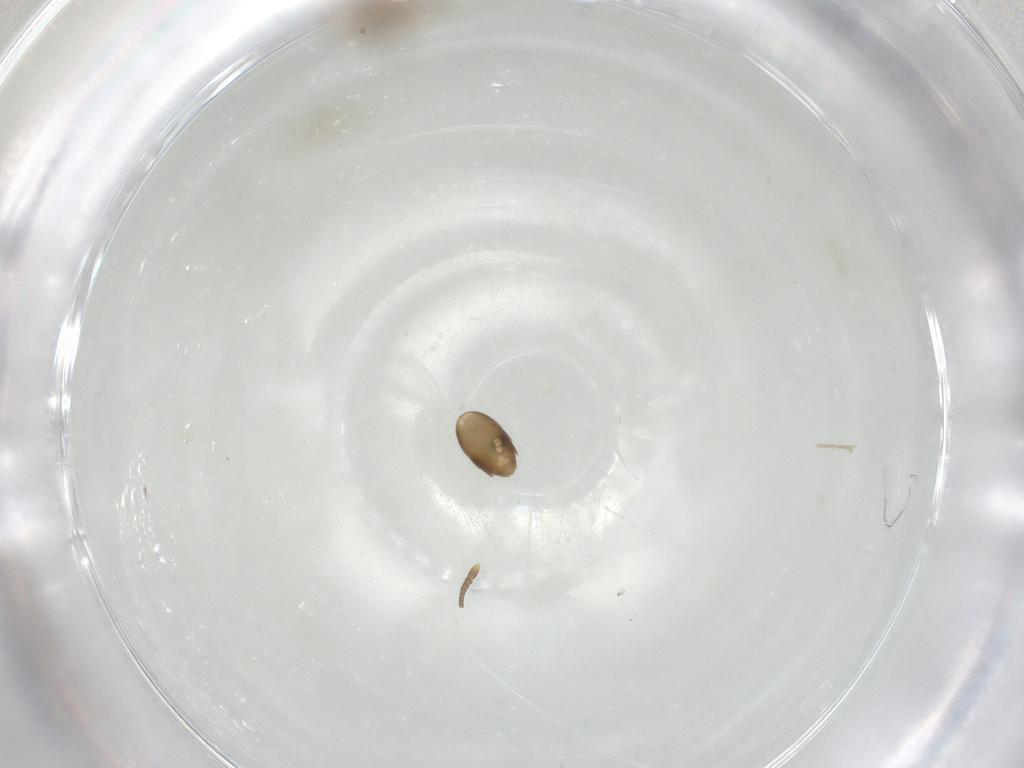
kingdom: Animalia
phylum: Arthropoda
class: Insecta
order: Hymenoptera
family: Formicidae
